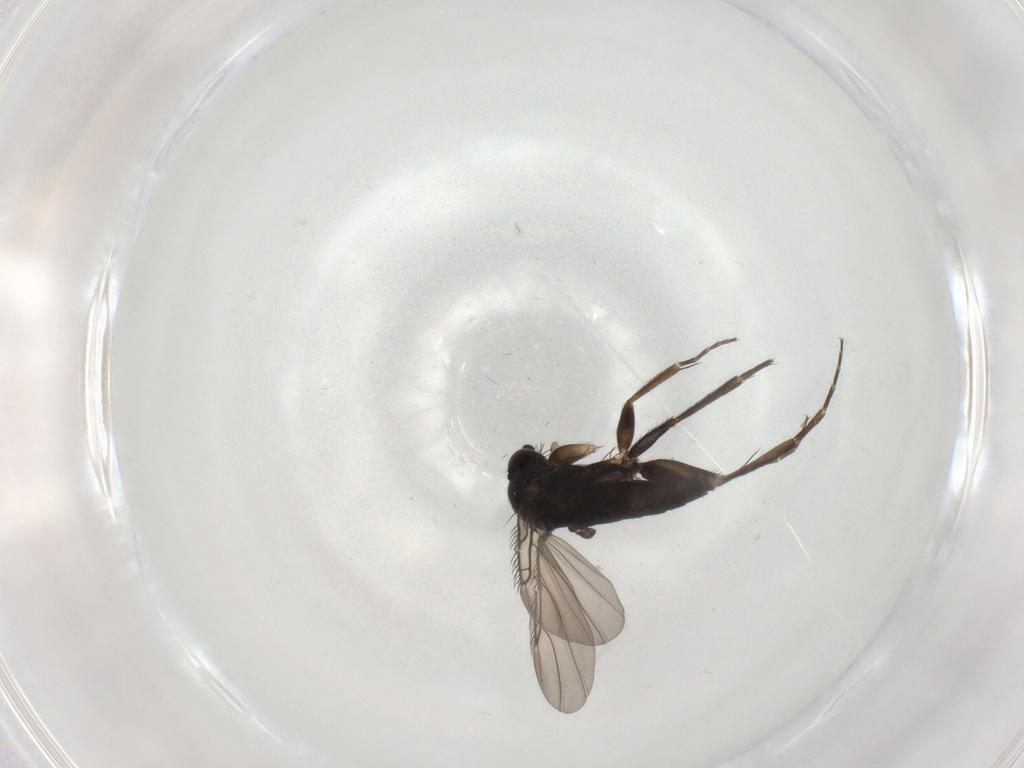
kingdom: Animalia
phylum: Arthropoda
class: Insecta
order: Diptera
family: Phoridae
